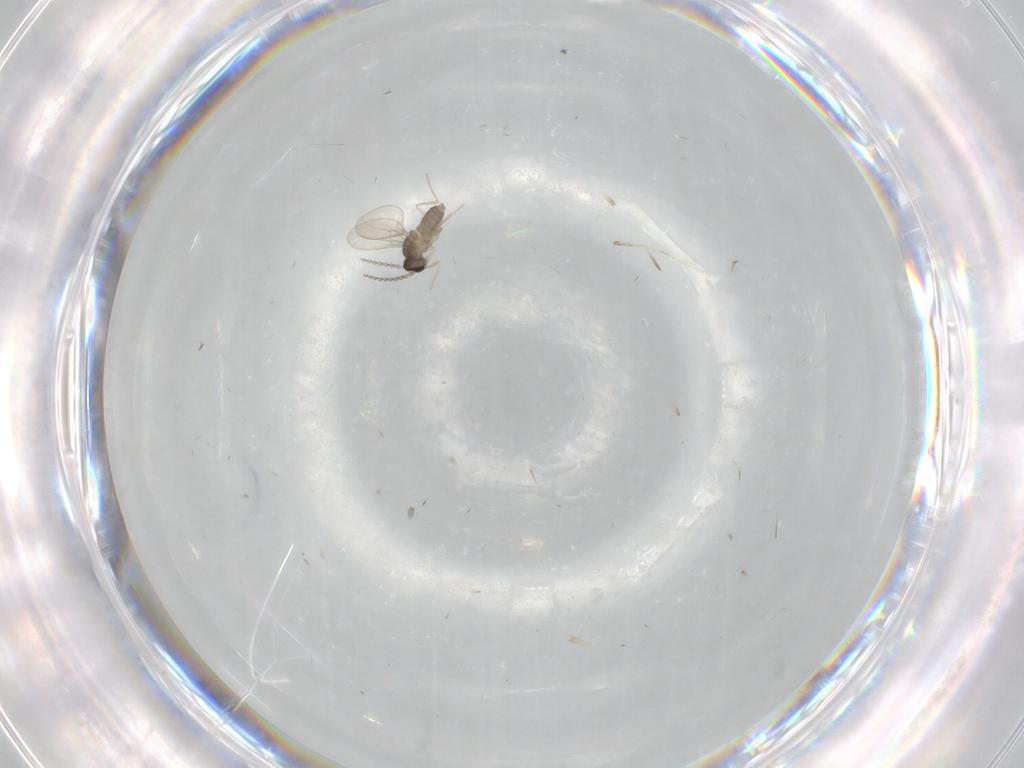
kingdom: Animalia
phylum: Arthropoda
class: Insecta
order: Diptera
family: Cecidomyiidae
